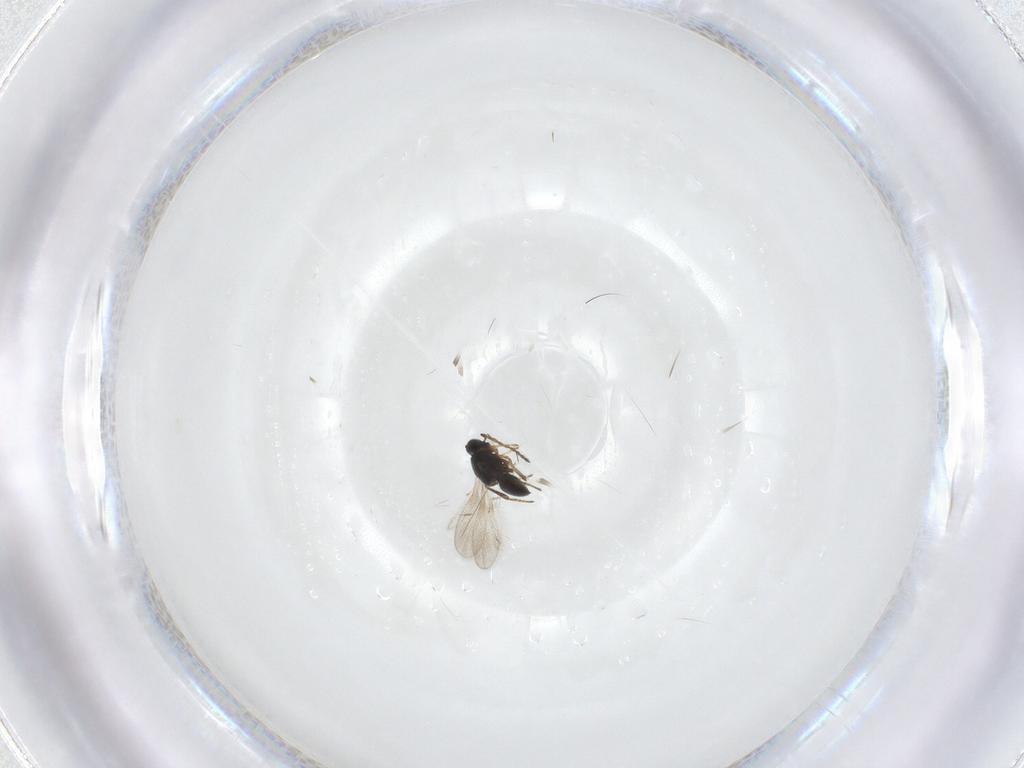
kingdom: Animalia
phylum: Arthropoda
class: Insecta
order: Hymenoptera
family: Platygastridae
